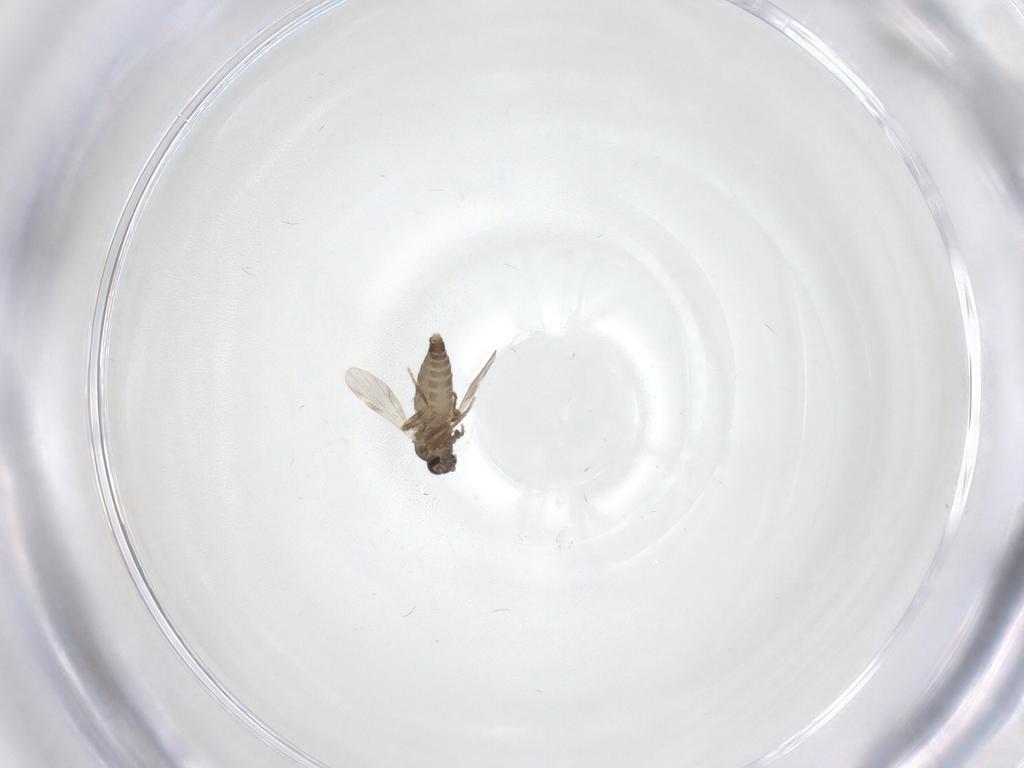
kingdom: Animalia
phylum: Arthropoda
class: Insecta
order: Diptera
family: Ceratopogonidae
